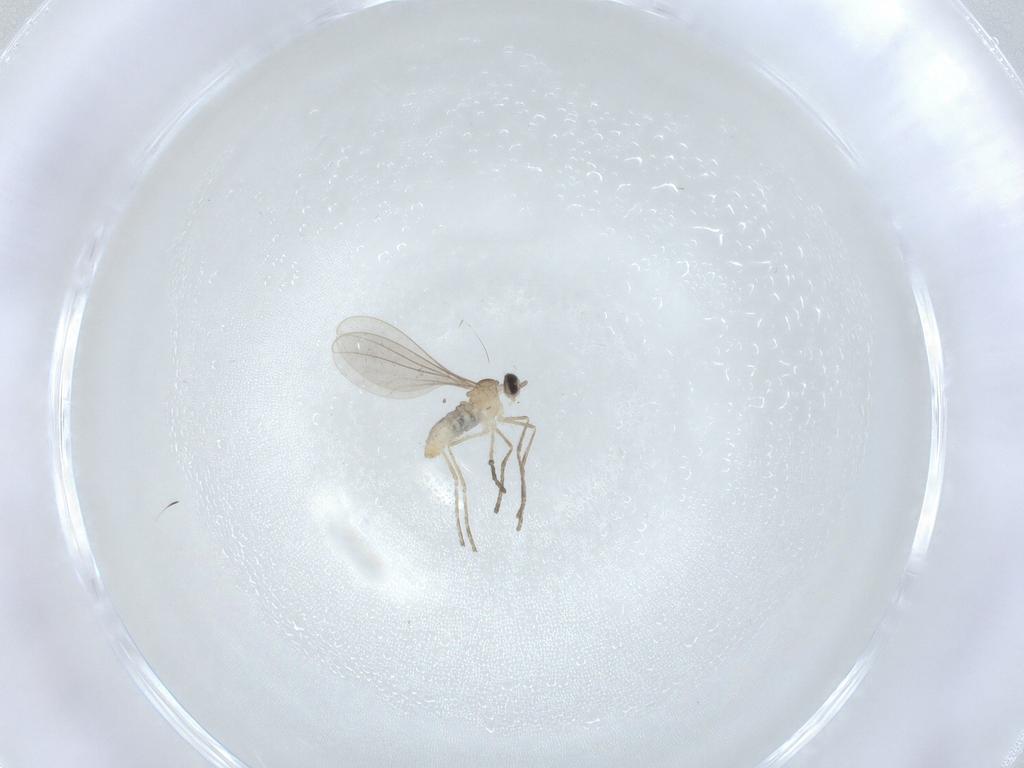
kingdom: Animalia
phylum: Arthropoda
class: Insecta
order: Diptera
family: Cecidomyiidae
